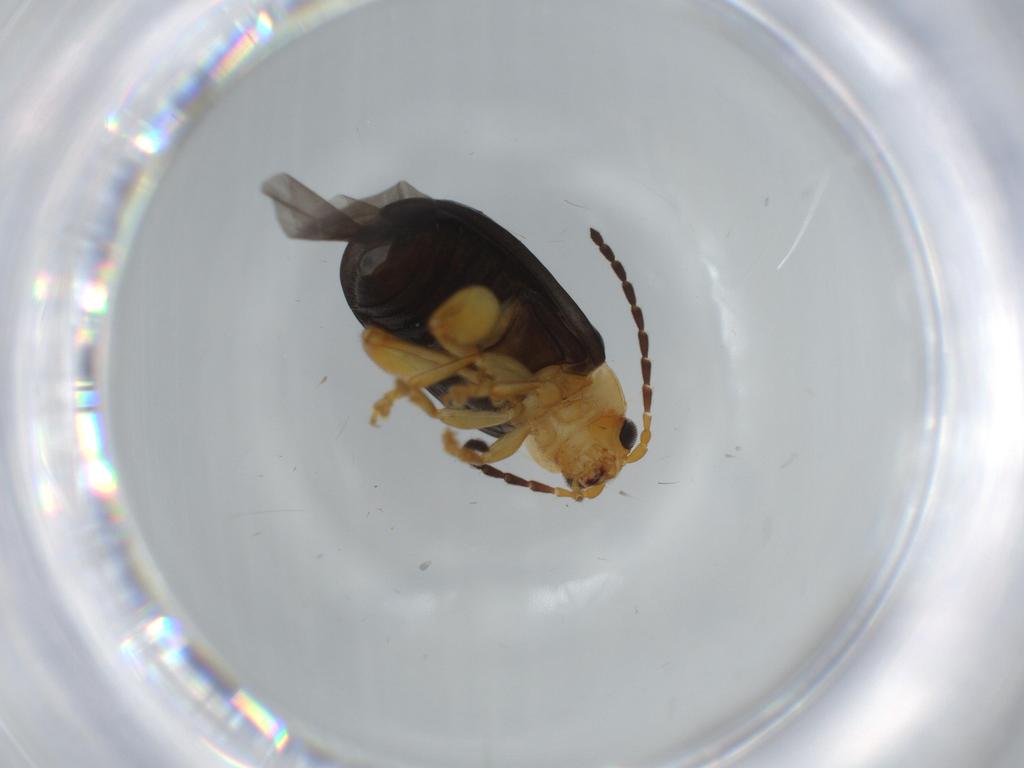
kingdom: Animalia
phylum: Arthropoda
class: Insecta
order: Coleoptera
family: Chrysomelidae
